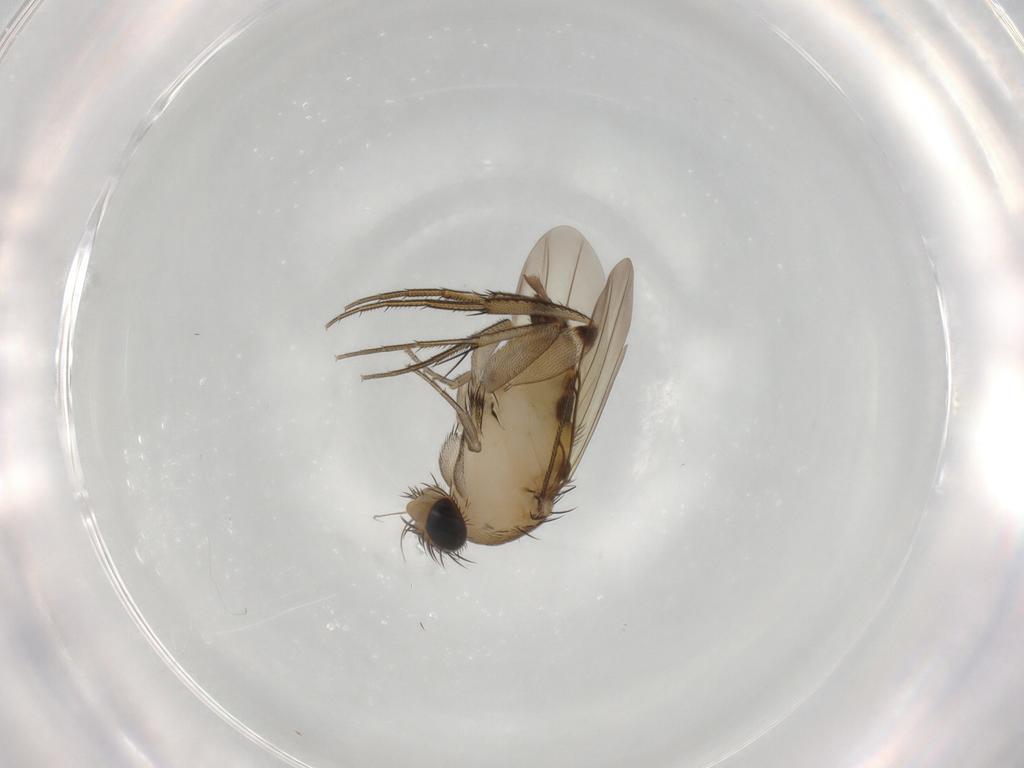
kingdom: Animalia
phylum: Arthropoda
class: Insecta
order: Diptera
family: Phoridae
